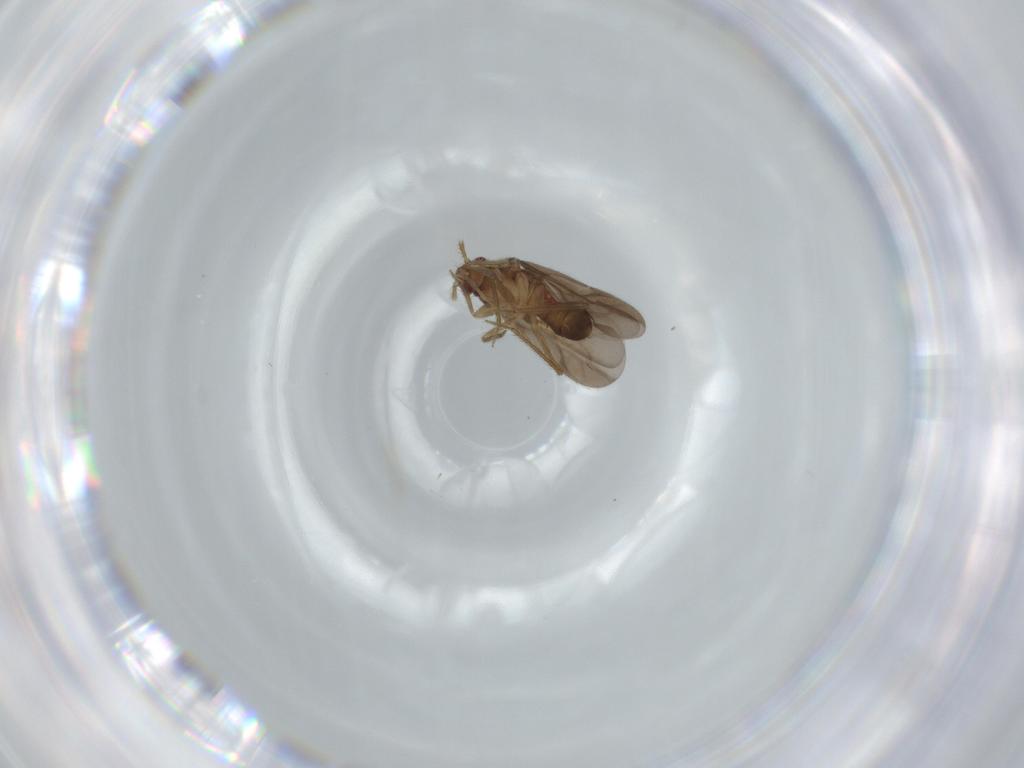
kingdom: Animalia
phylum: Arthropoda
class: Insecta
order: Hemiptera
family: Ceratocombidae
